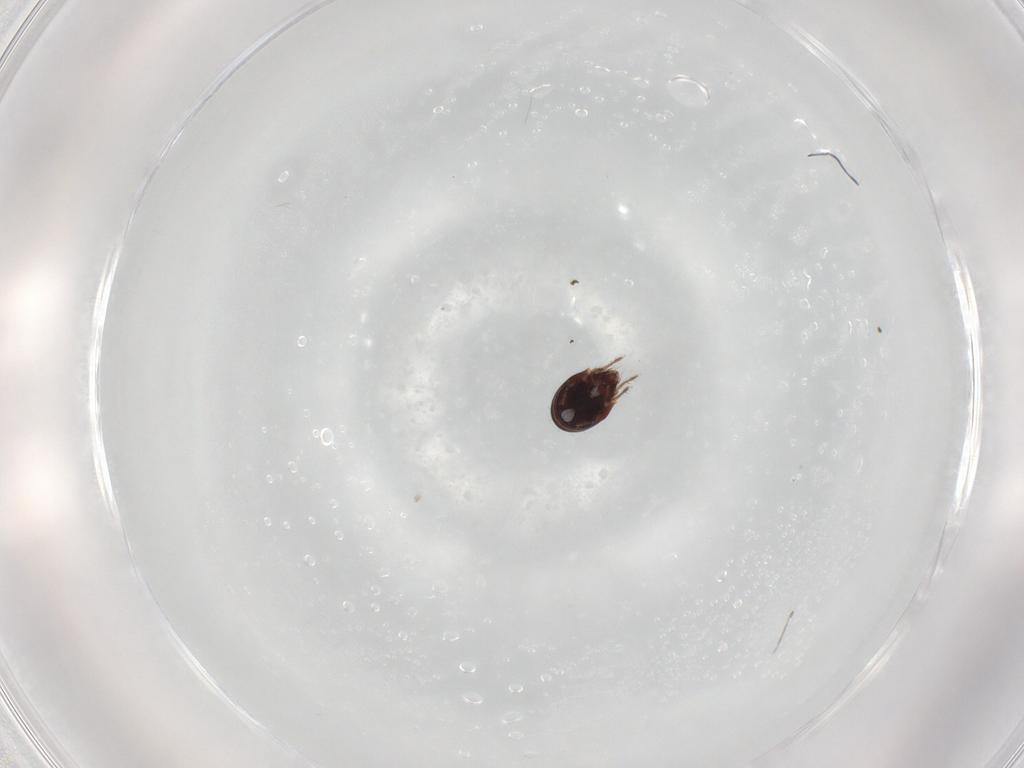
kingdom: Animalia
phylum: Arthropoda
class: Arachnida
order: Sarcoptiformes
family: Ceratozetidae
